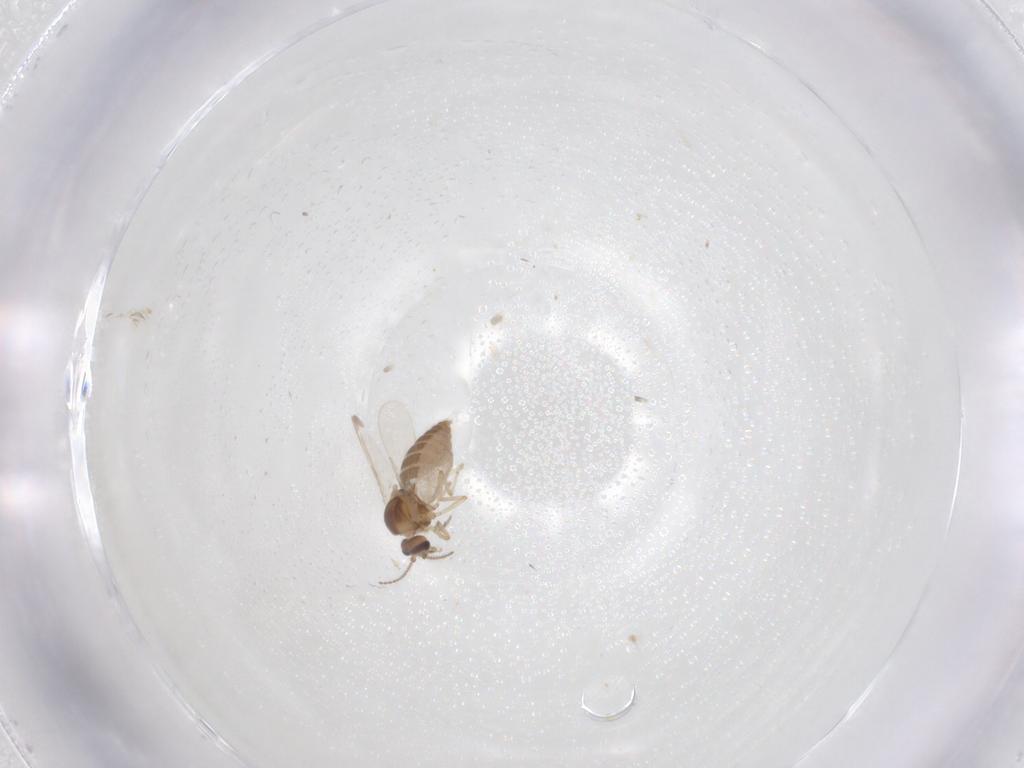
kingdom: Animalia
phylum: Arthropoda
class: Insecta
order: Diptera
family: Ceratopogonidae
